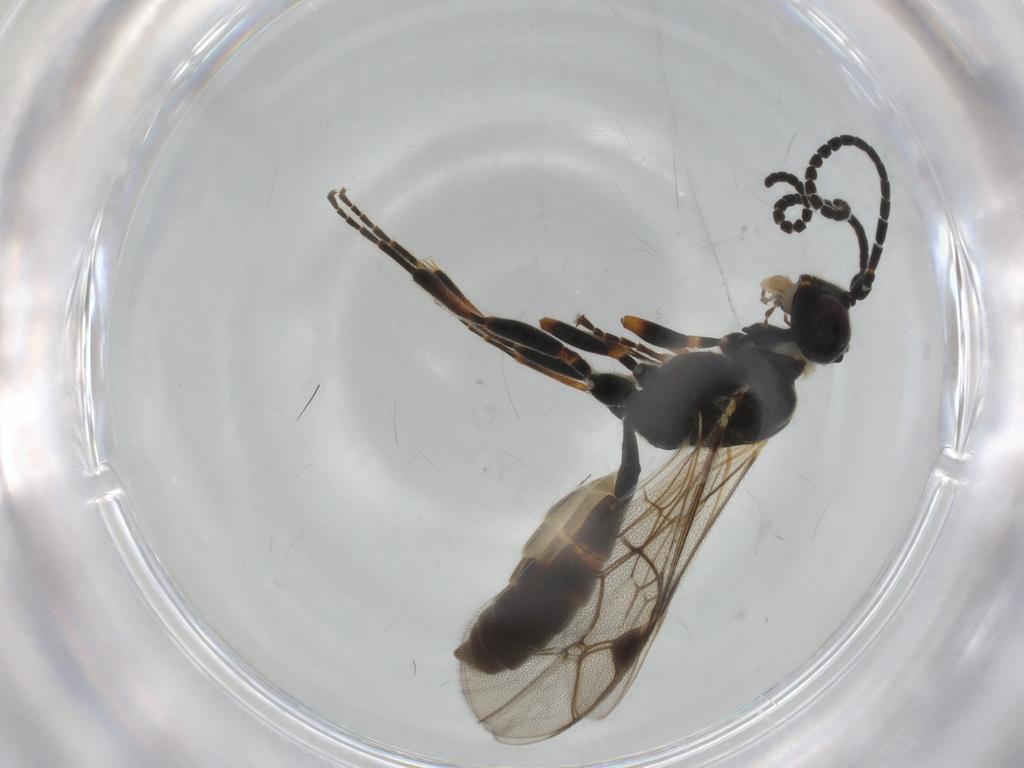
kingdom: Animalia
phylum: Arthropoda
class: Insecta
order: Hymenoptera
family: Ichneumonidae
